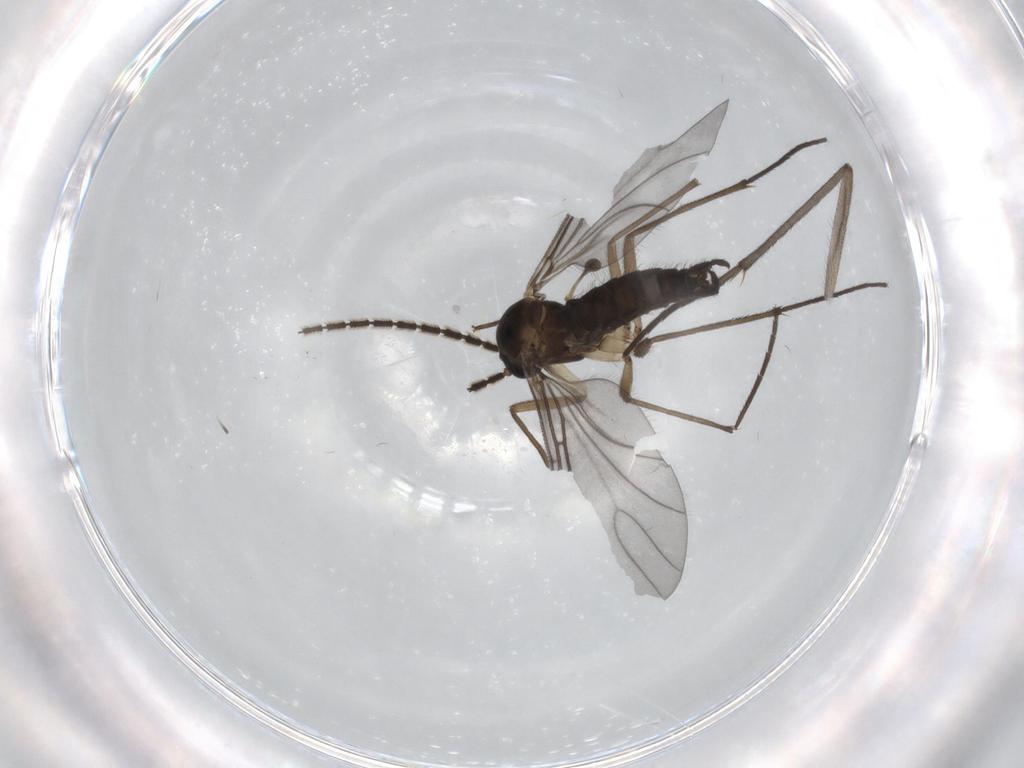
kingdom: Animalia
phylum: Arthropoda
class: Insecta
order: Diptera
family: Sciaridae
